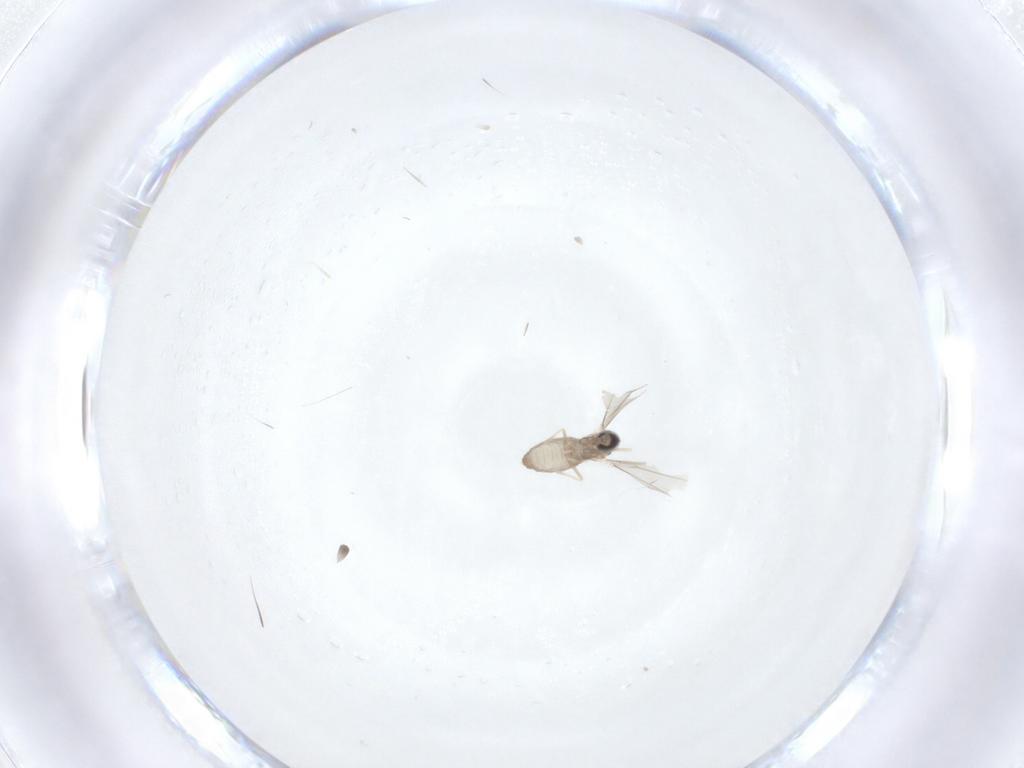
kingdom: Animalia
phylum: Arthropoda
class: Insecta
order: Diptera
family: Cecidomyiidae
